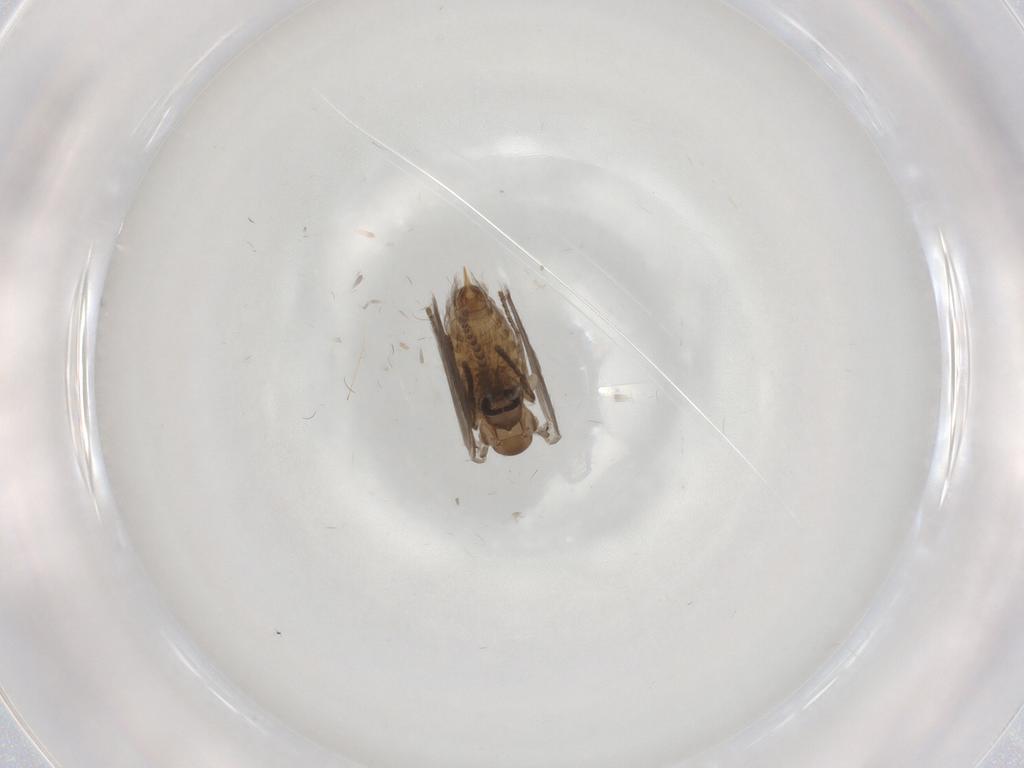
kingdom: Animalia
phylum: Arthropoda
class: Insecta
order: Diptera
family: Psychodidae
